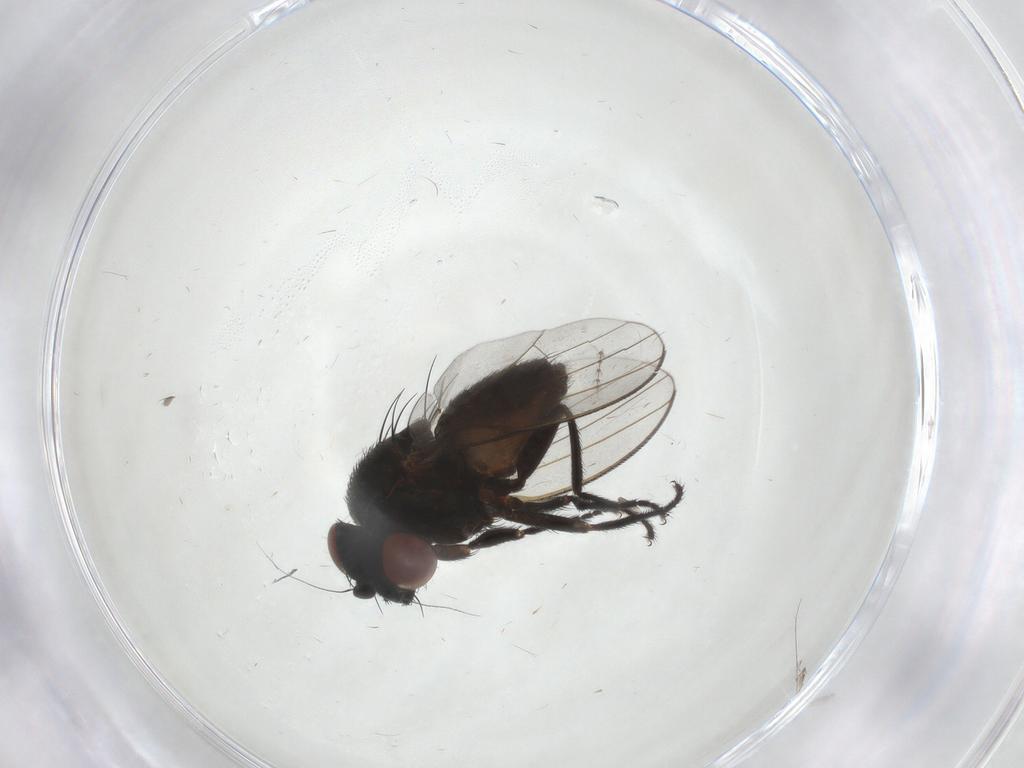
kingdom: Animalia
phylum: Arthropoda
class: Insecta
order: Diptera
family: Milichiidae
